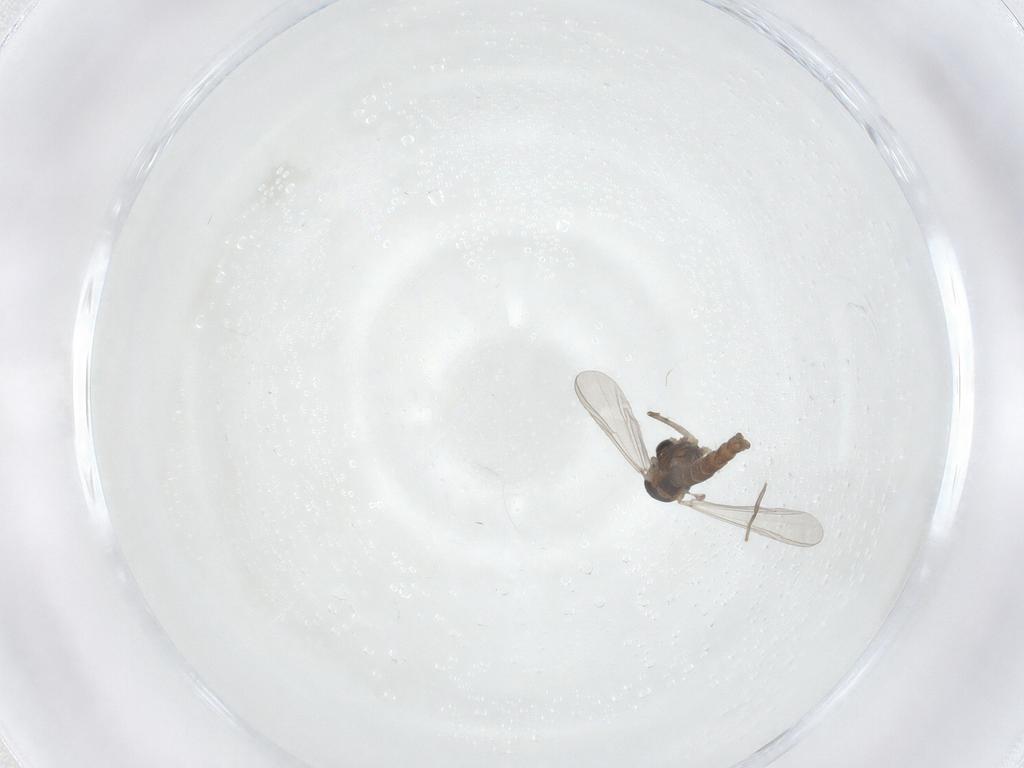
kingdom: Animalia
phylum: Arthropoda
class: Insecta
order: Diptera
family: Chironomidae
